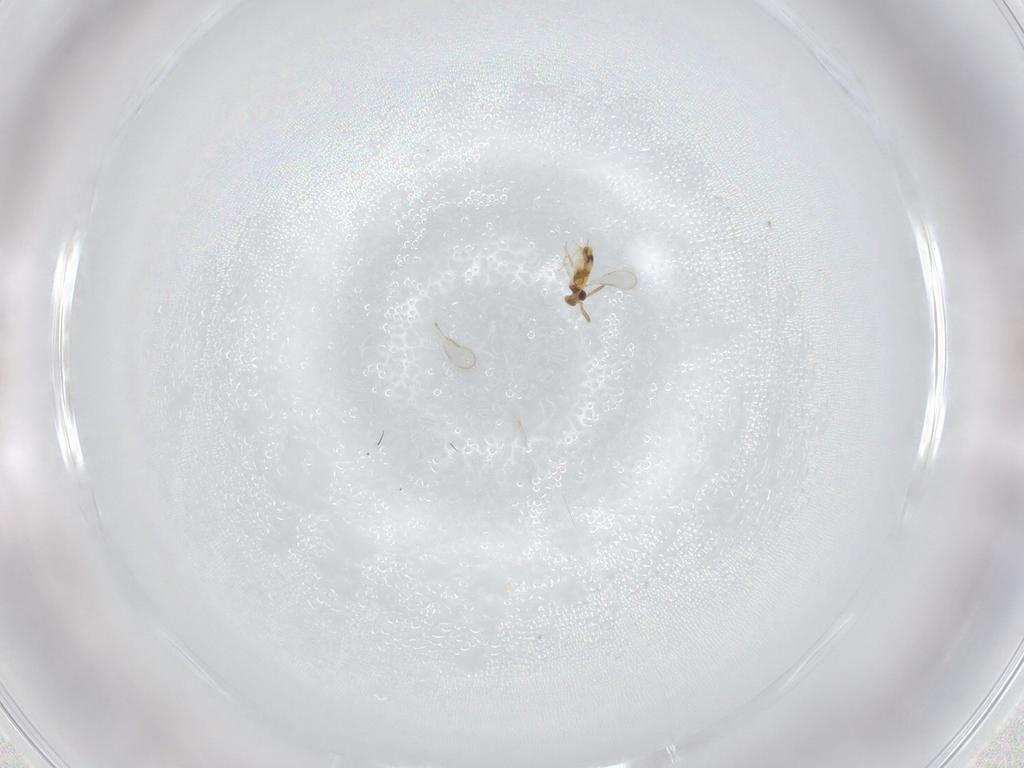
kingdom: Animalia
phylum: Arthropoda
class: Insecta
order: Hymenoptera
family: Aphelinidae
